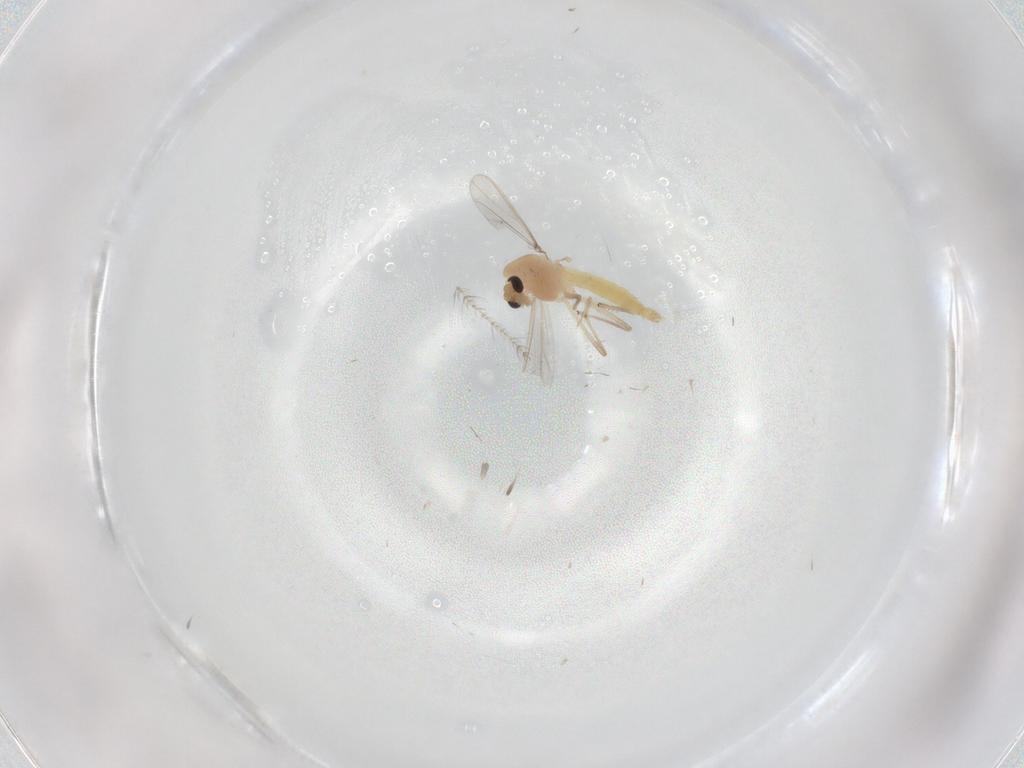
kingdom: Animalia
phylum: Arthropoda
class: Insecta
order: Diptera
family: Chironomidae
